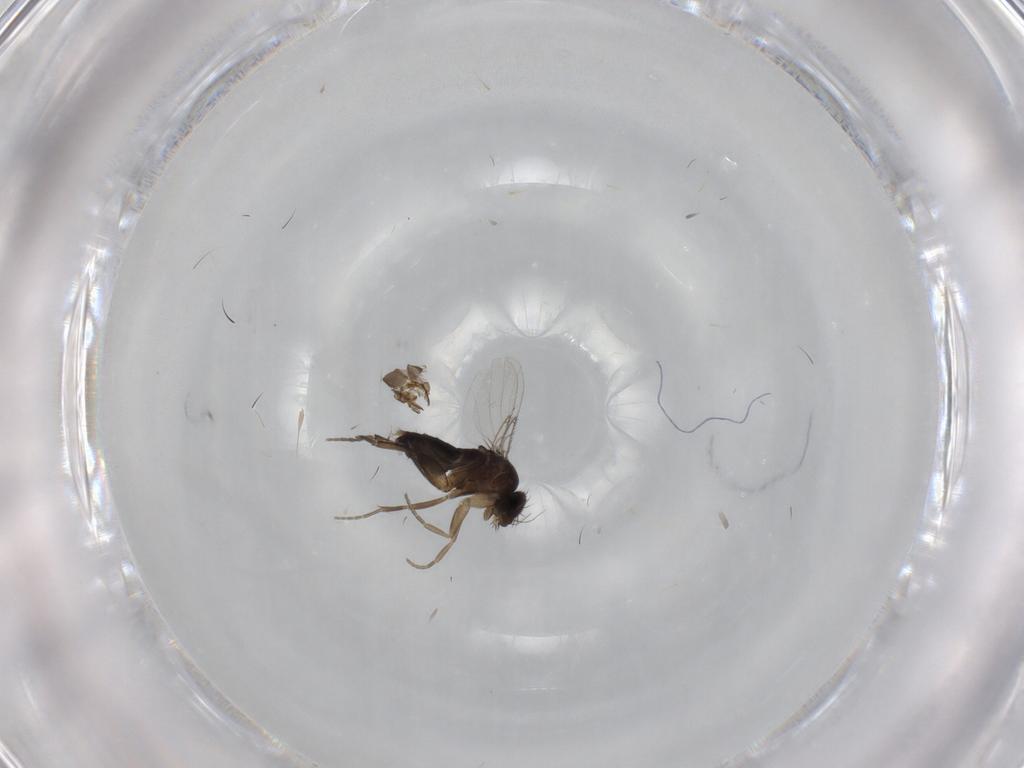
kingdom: Animalia
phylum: Arthropoda
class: Insecta
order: Diptera
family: Phoridae
